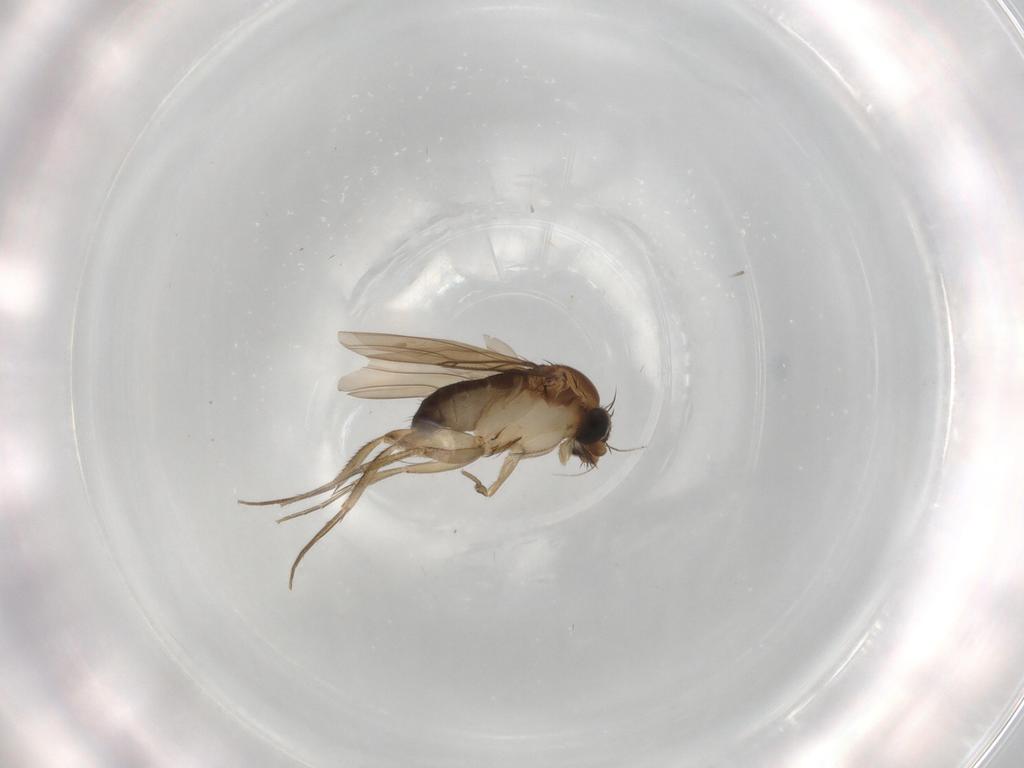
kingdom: Animalia
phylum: Arthropoda
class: Insecta
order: Diptera
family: Phoridae
